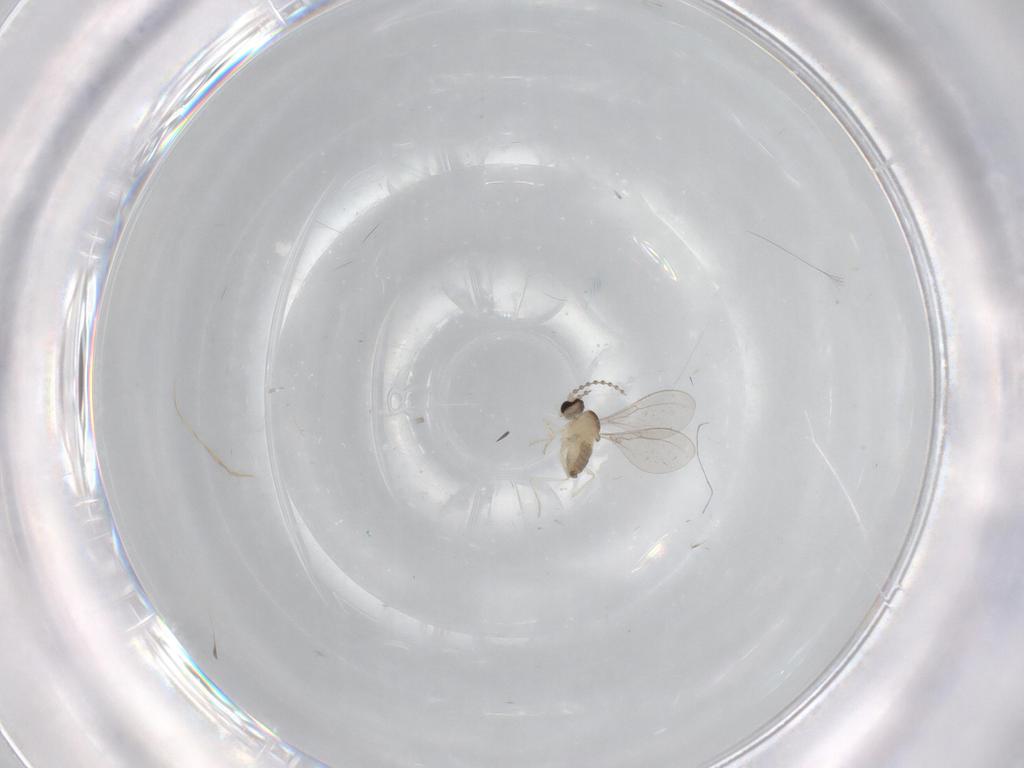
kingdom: Animalia
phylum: Arthropoda
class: Insecta
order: Diptera
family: Cecidomyiidae
